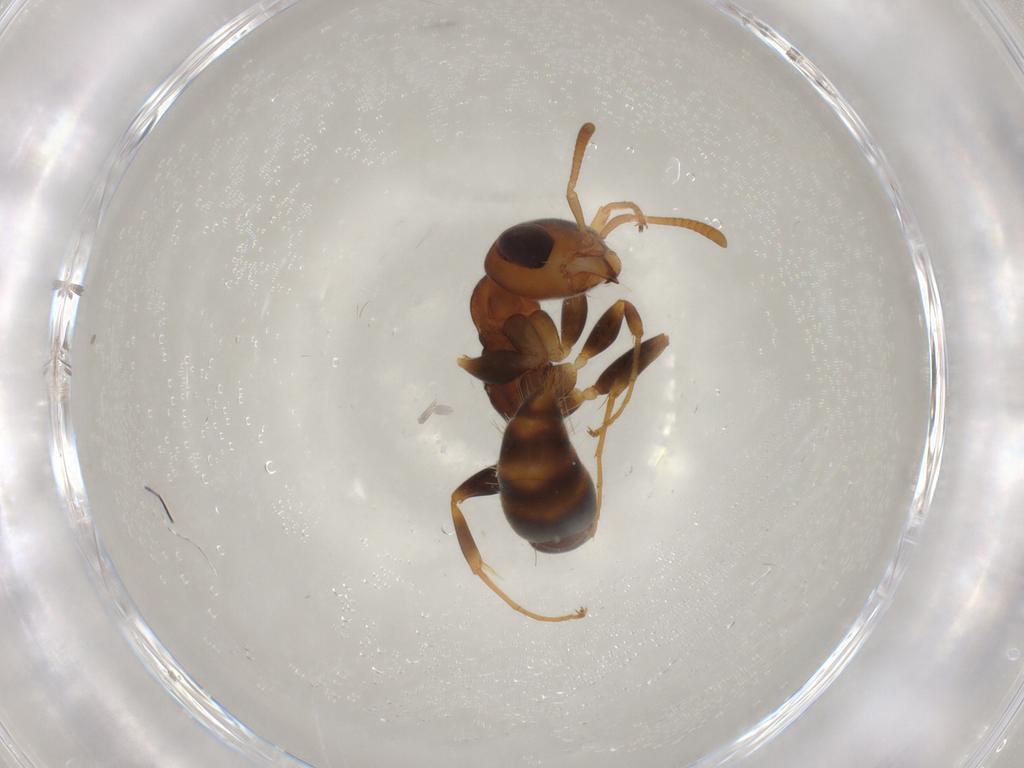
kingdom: Animalia
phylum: Arthropoda
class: Insecta
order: Hymenoptera
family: Formicidae
